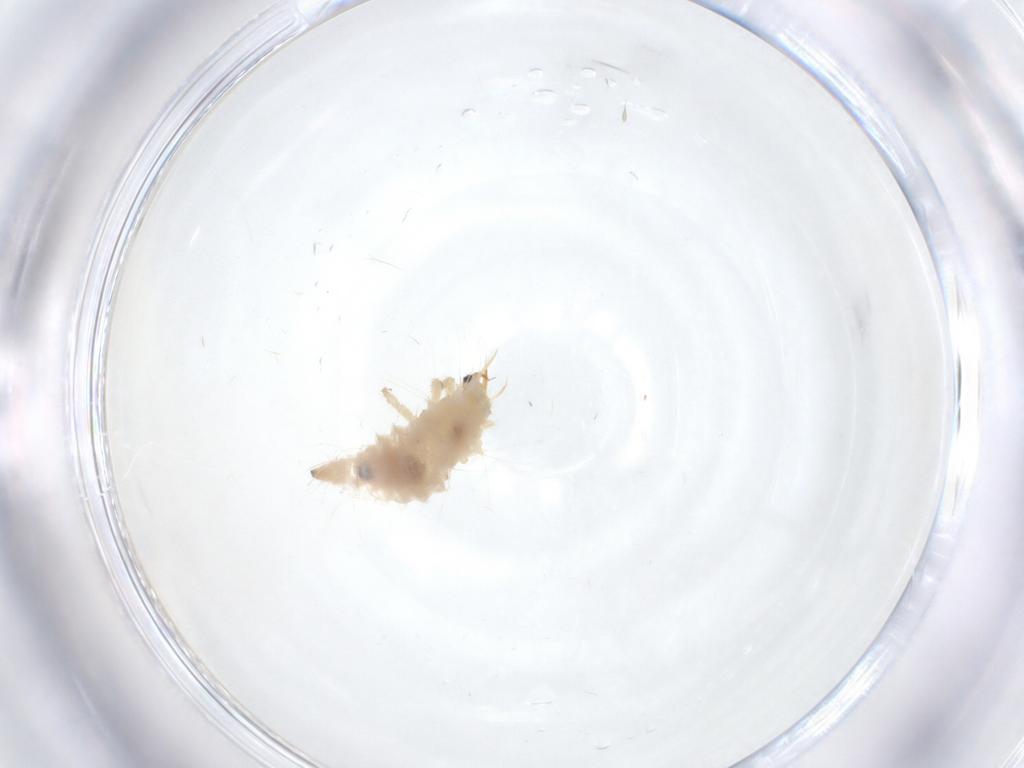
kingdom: Animalia
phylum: Arthropoda
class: Insecta
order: Neuroptera
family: Chrysopidae
